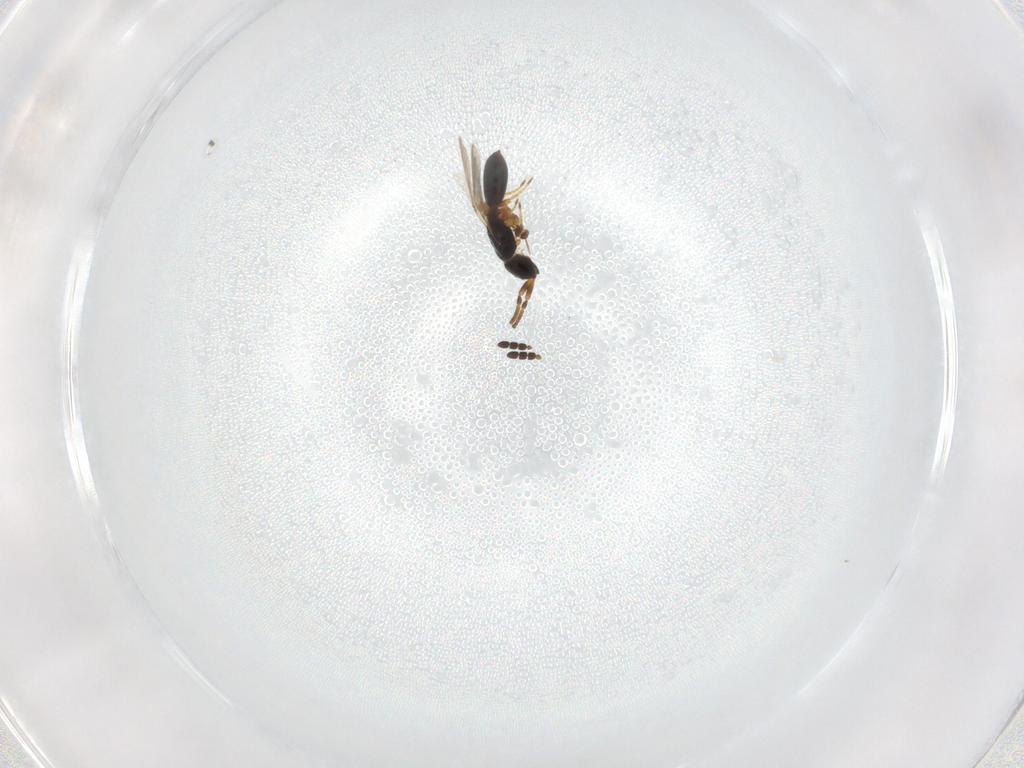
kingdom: Animalia
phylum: Arthropoda
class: Insecta
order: Hymenoptera
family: Diapriidae
